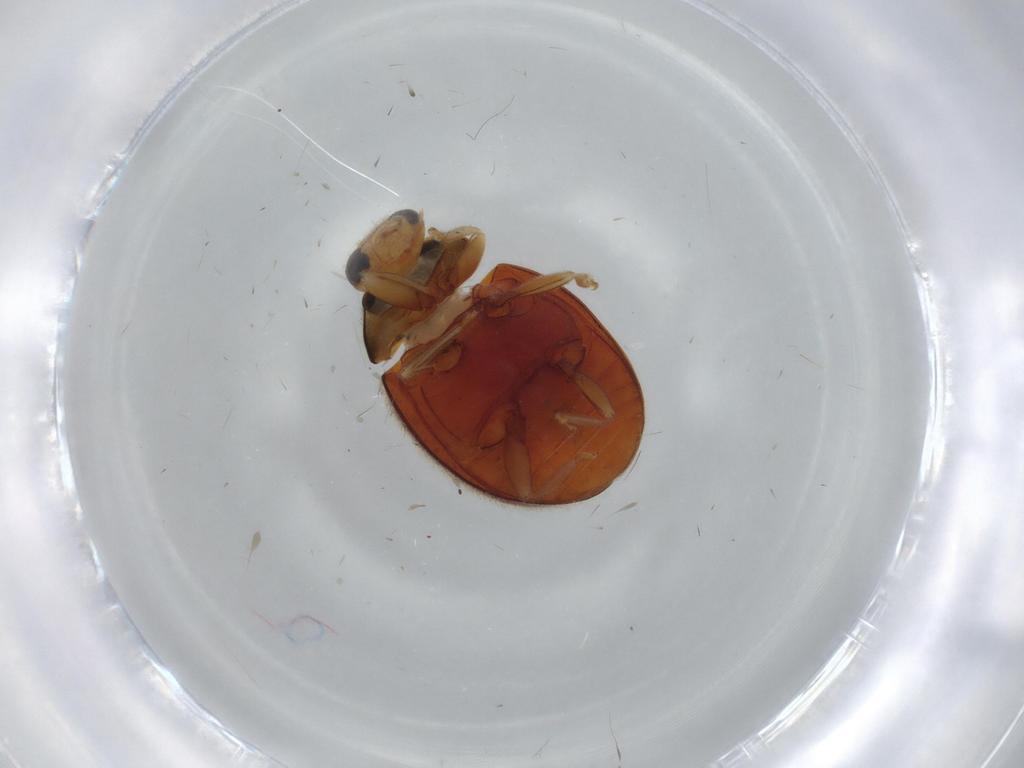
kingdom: Animalia
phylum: Arthropoda
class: Insecta
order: Coleoptera
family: Coccinellidae
